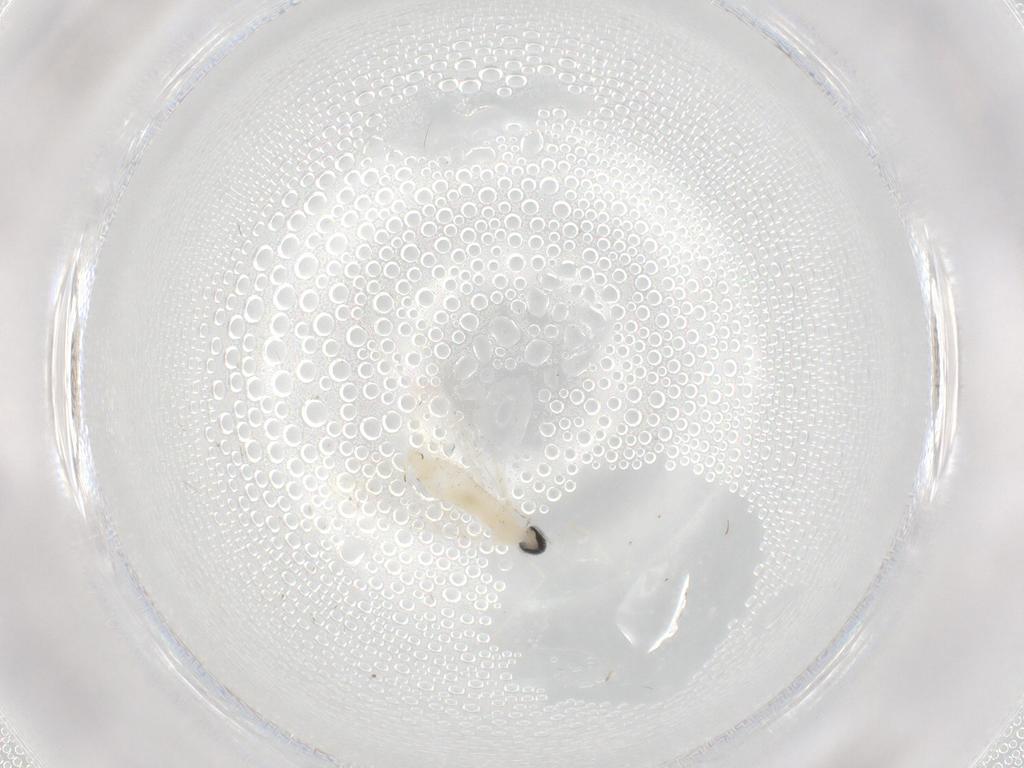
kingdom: Animalia
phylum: Arthropoda
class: Insecta
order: Diptera
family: Cecidomyiidae
